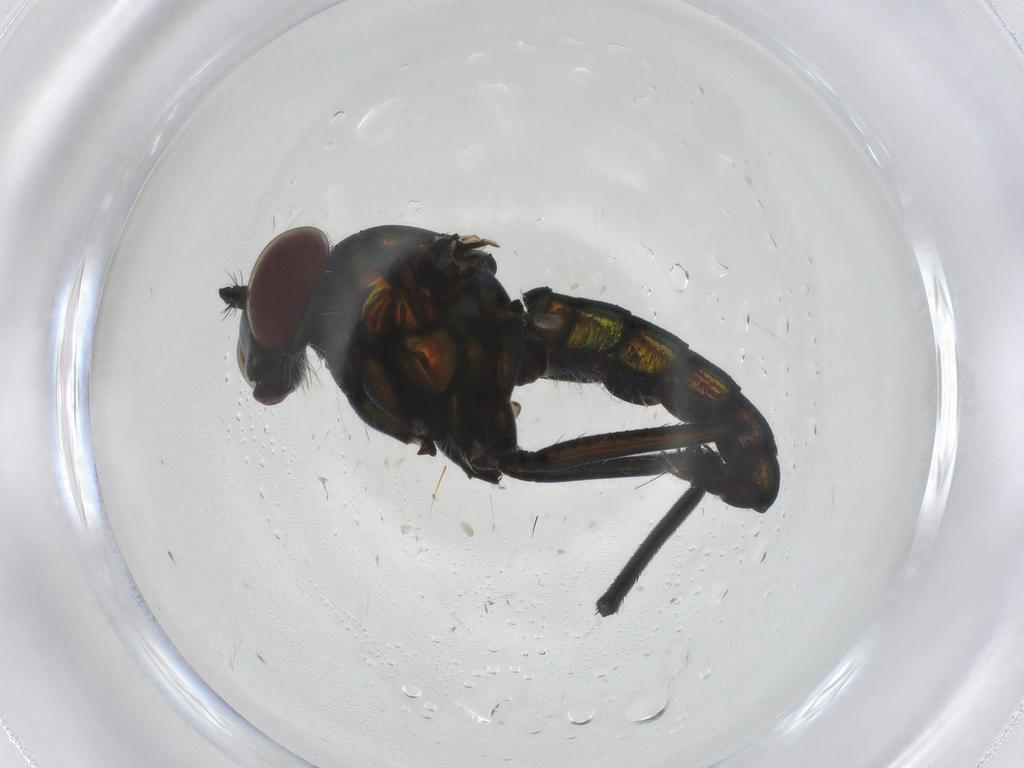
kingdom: Animalia
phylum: Arthropoda
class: Insecta
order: Diptera
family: Dolichopodidae
